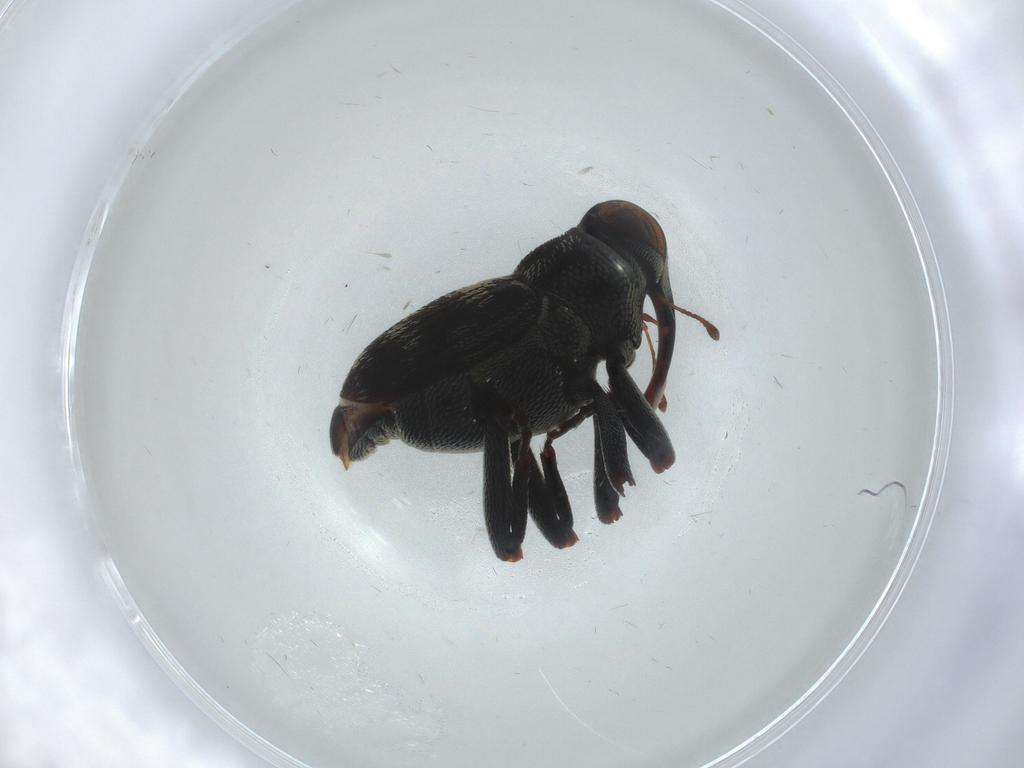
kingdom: Animalia
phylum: Arthropoda
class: Insecta
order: Coleoptera
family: Curculionidae
